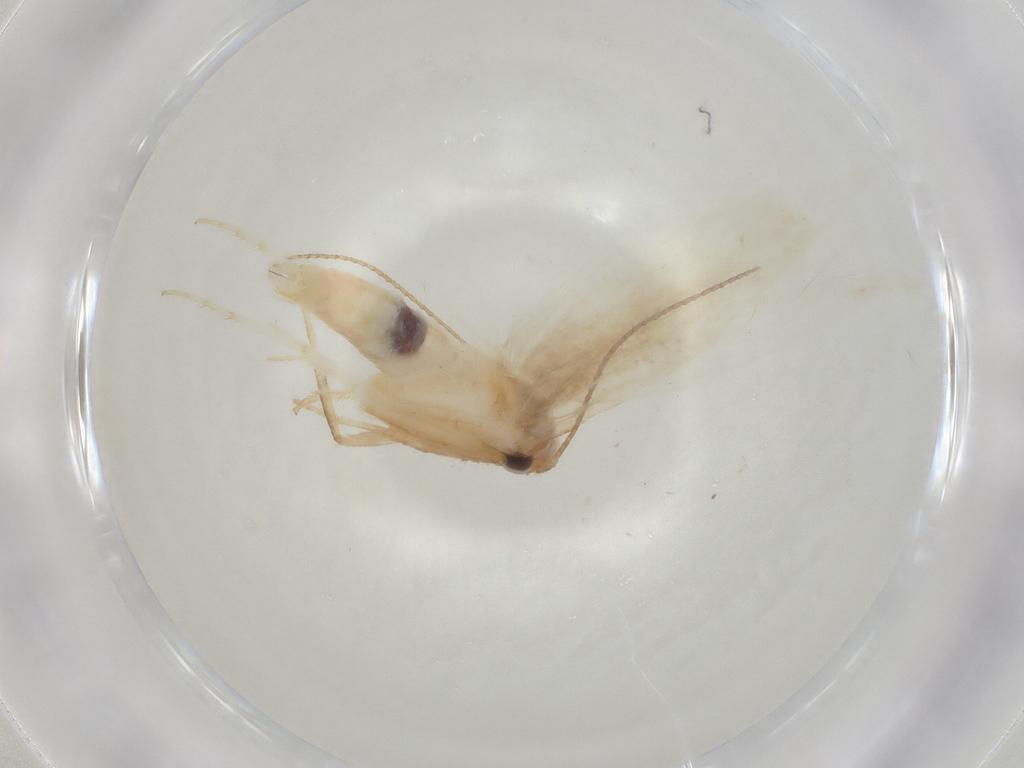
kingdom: Animalia
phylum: Arthropoda
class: Insecta
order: Lepidoptera
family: Gelechiidae
